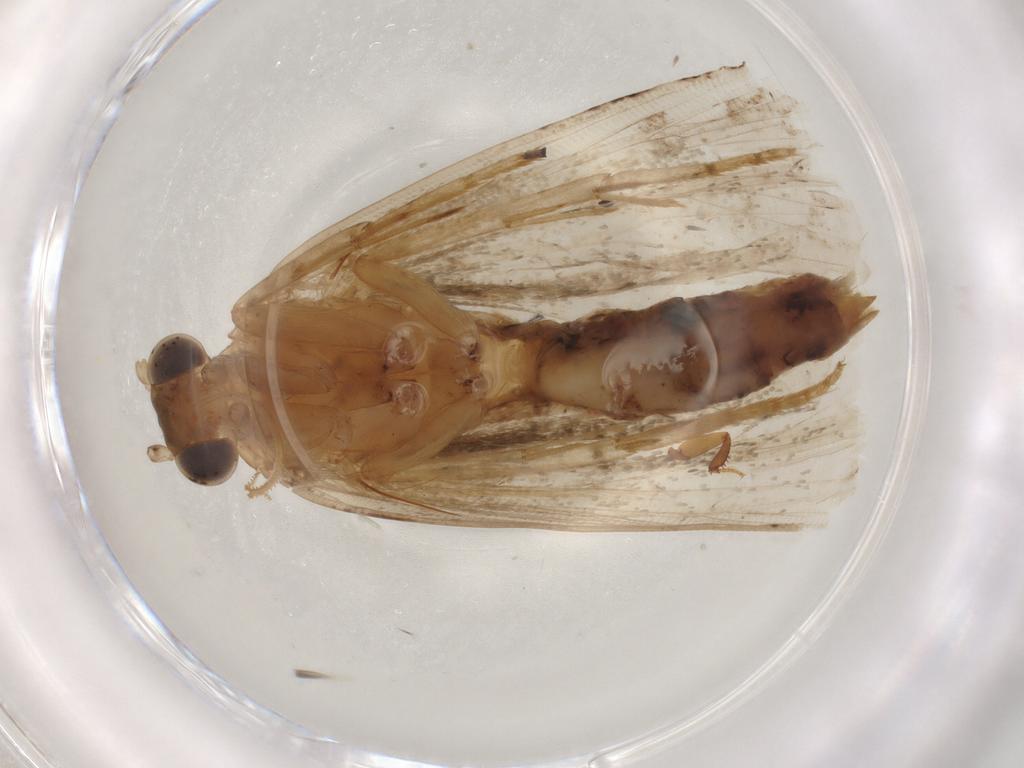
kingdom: Animalia
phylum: Arthropoda
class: Insecta
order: Lepidoptera
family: Immidae
